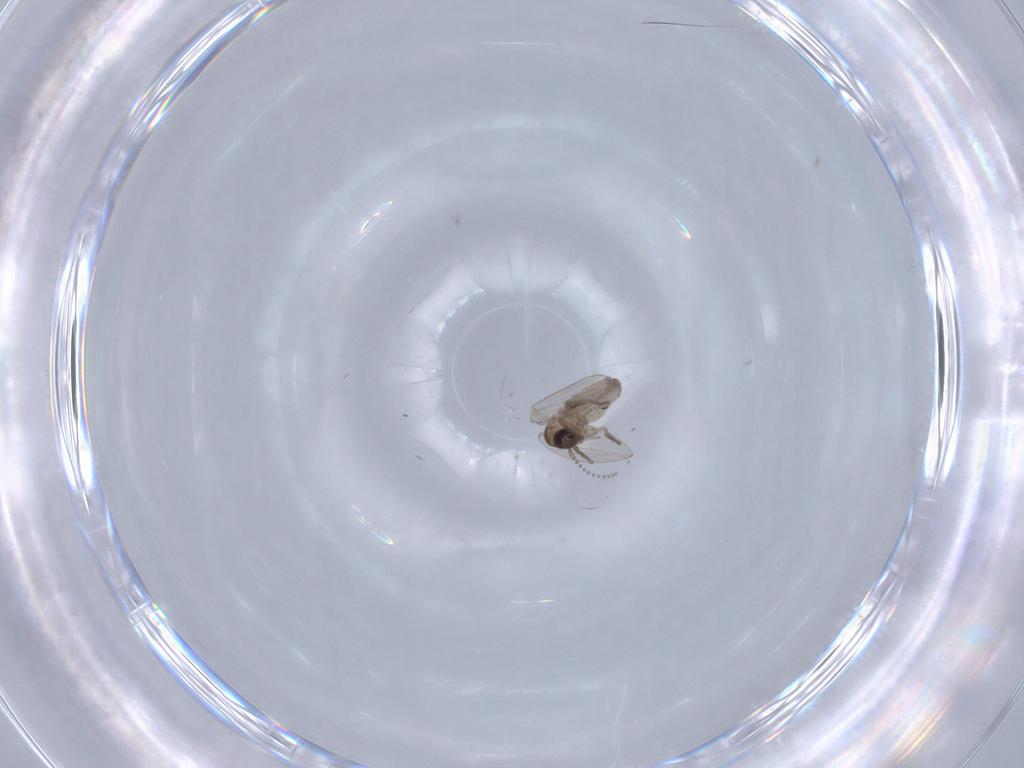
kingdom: Animalia
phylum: Arthropoda
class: Insecta
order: Diptera
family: Psychodidae
